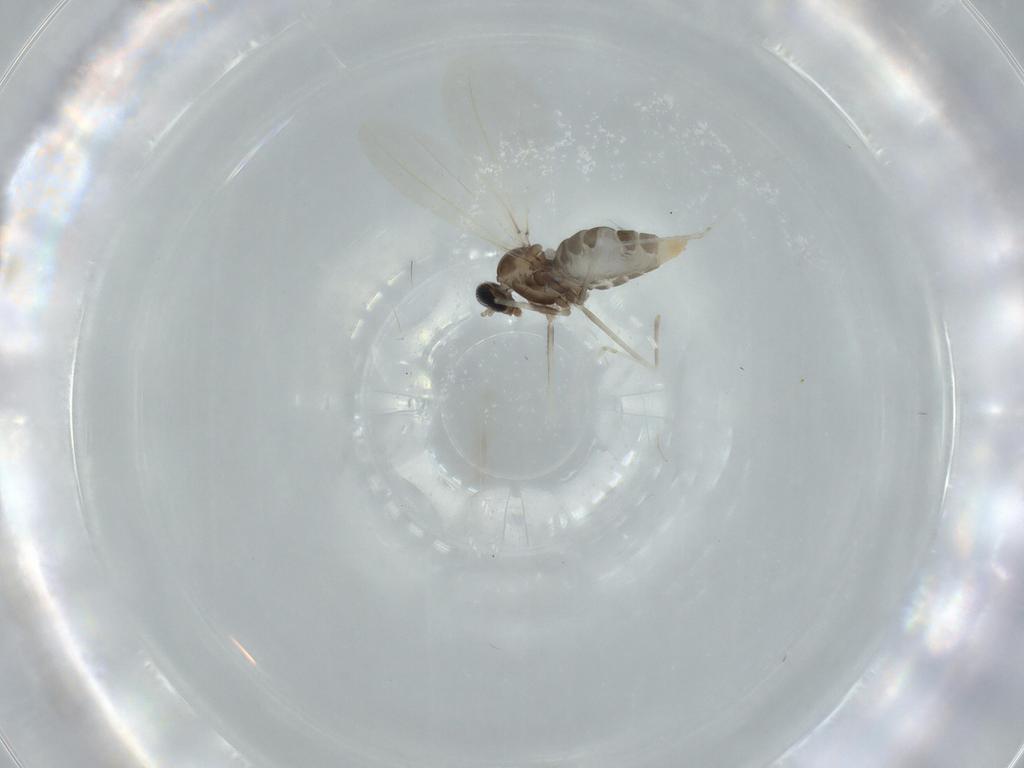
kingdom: Animalia
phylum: Arthropoda
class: Insecta
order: Diptera
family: Cecidomyiidae
